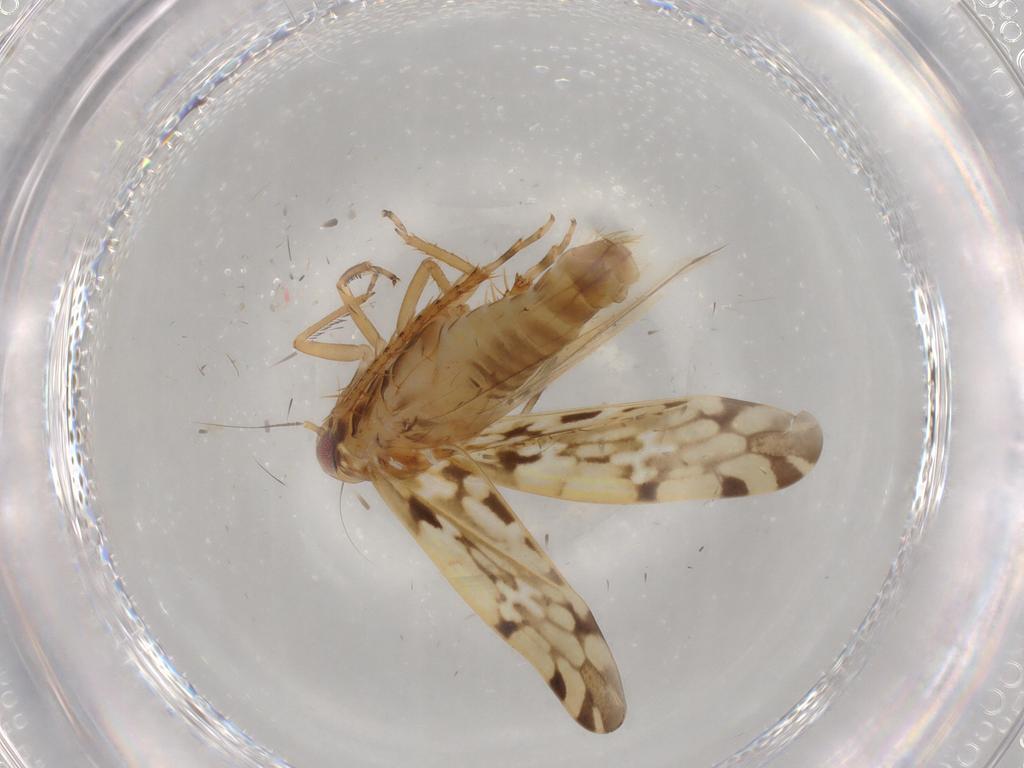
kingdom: Animalia
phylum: Arthropoda
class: Insecta
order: Hemiptera
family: Cicadellidae
